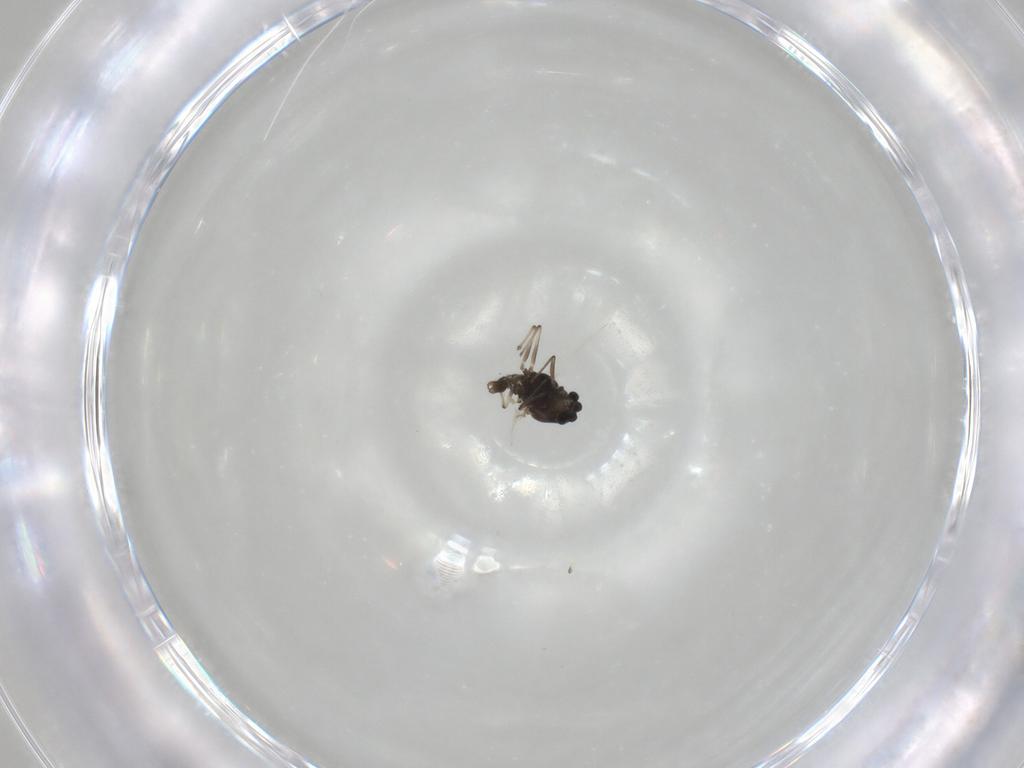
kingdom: Animalia
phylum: Arthropoda
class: Insecta
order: Diptera
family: Chironomidae
